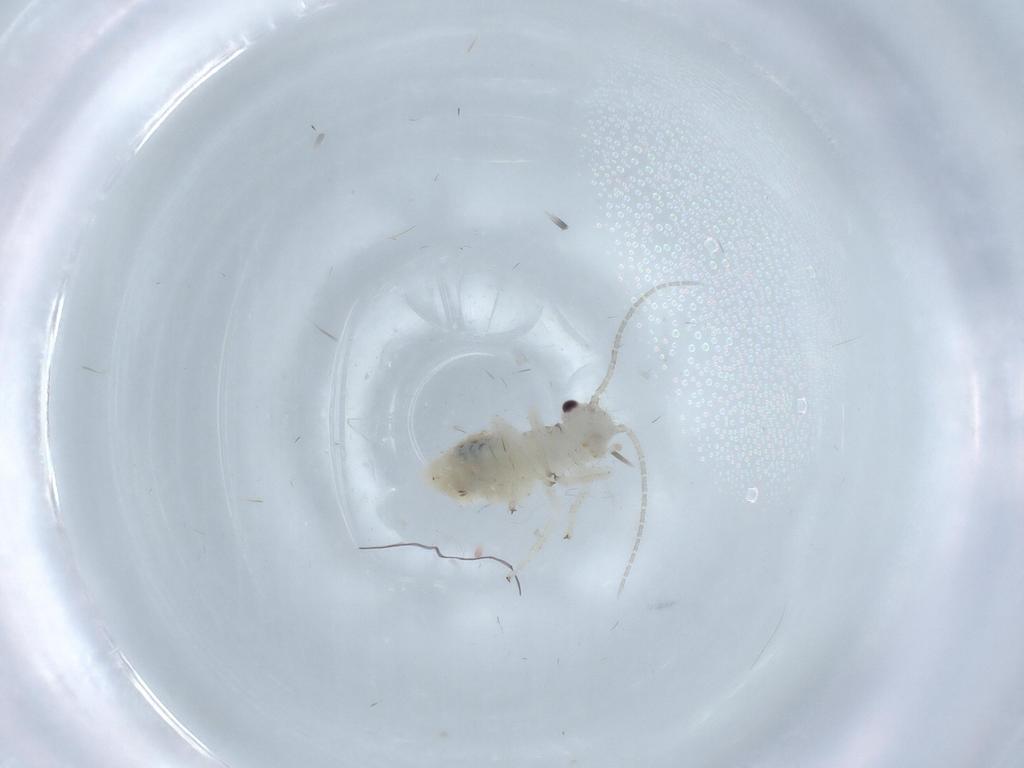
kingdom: Animalia
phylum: Arthropoda
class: Insecta
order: Psocodea
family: Amphipsocidae
